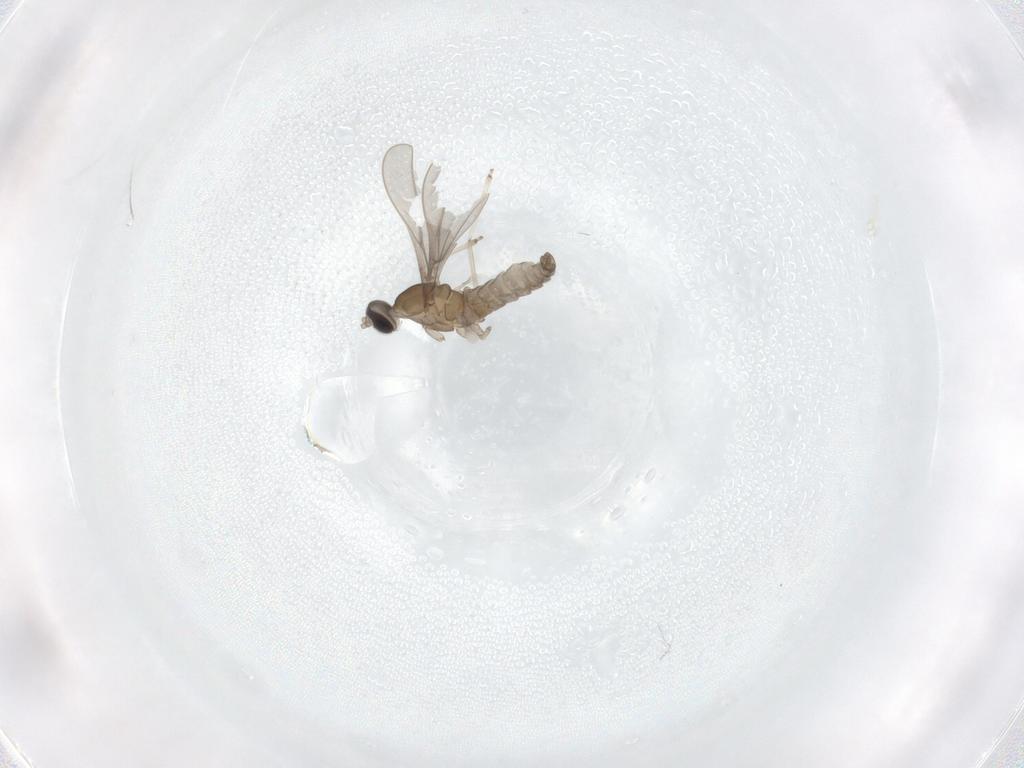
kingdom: Animalia
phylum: Arthropoda
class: Insecta
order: Diptera
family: Cecidomyiidae
